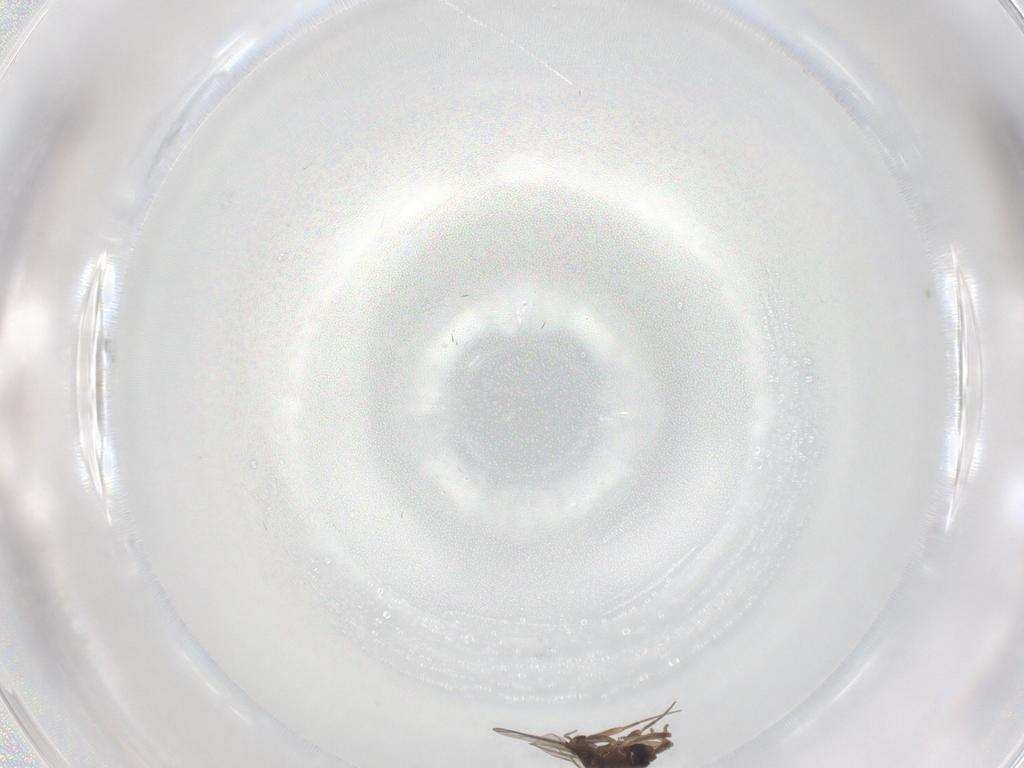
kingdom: Animalia
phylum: Arthropoda
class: Insecta
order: Diptera
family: Phoridae
